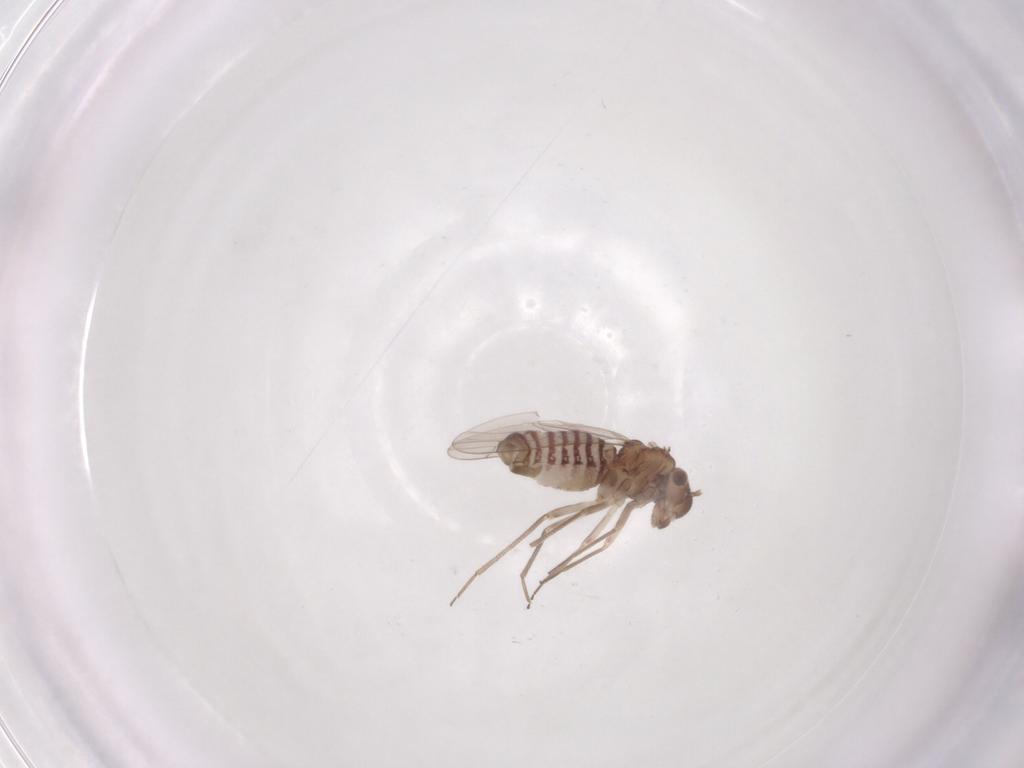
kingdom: Animalia
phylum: Arthropoda
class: Insecta
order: Psocodea
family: Lachesillidae
